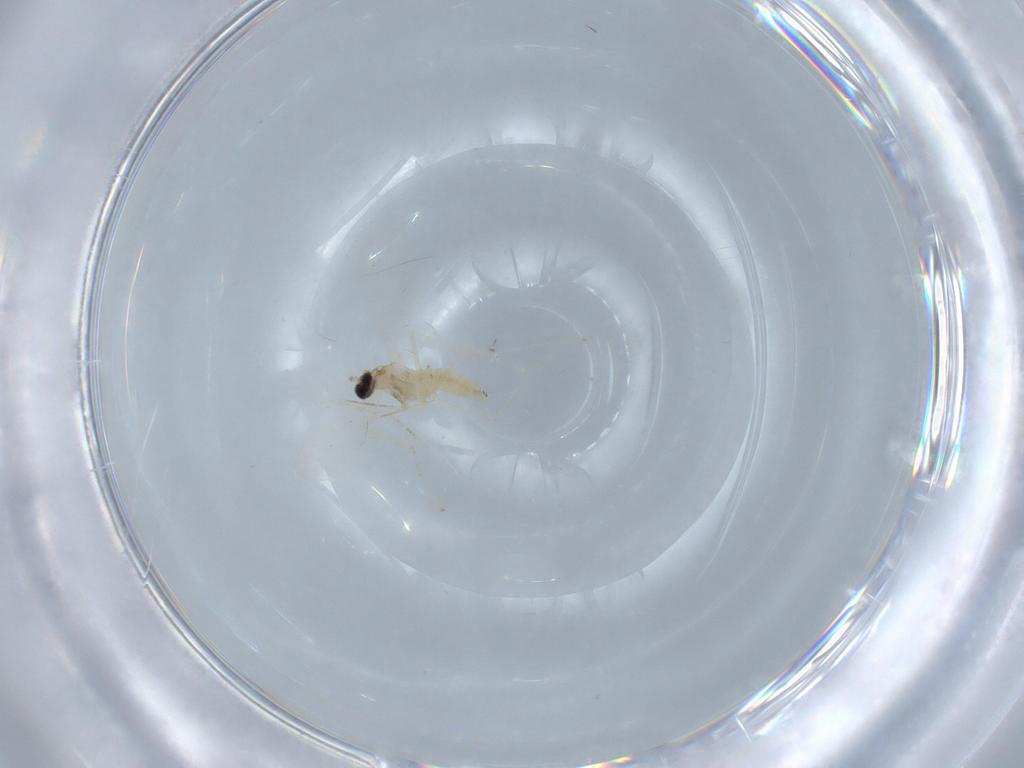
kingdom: Animalia
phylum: Arthropoda
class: Insecta
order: Diptera
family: Cecidomyiidae
